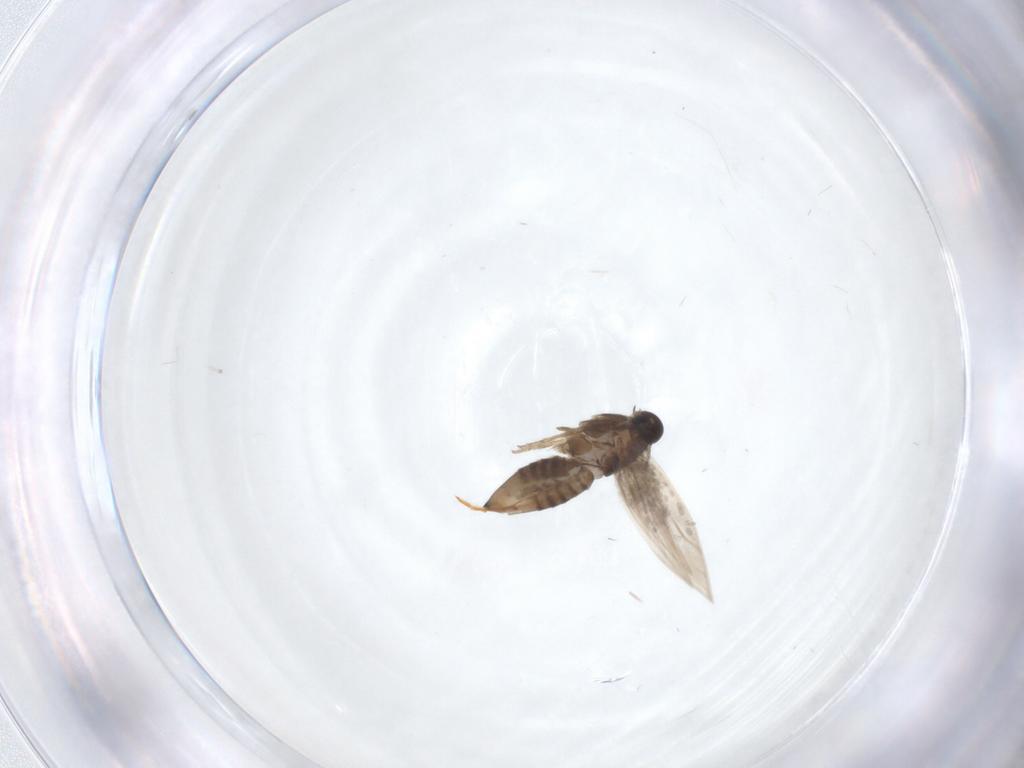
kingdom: Animalia
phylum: Arthropoda
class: Insecta
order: Lepidoptera
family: Heliozelidae
